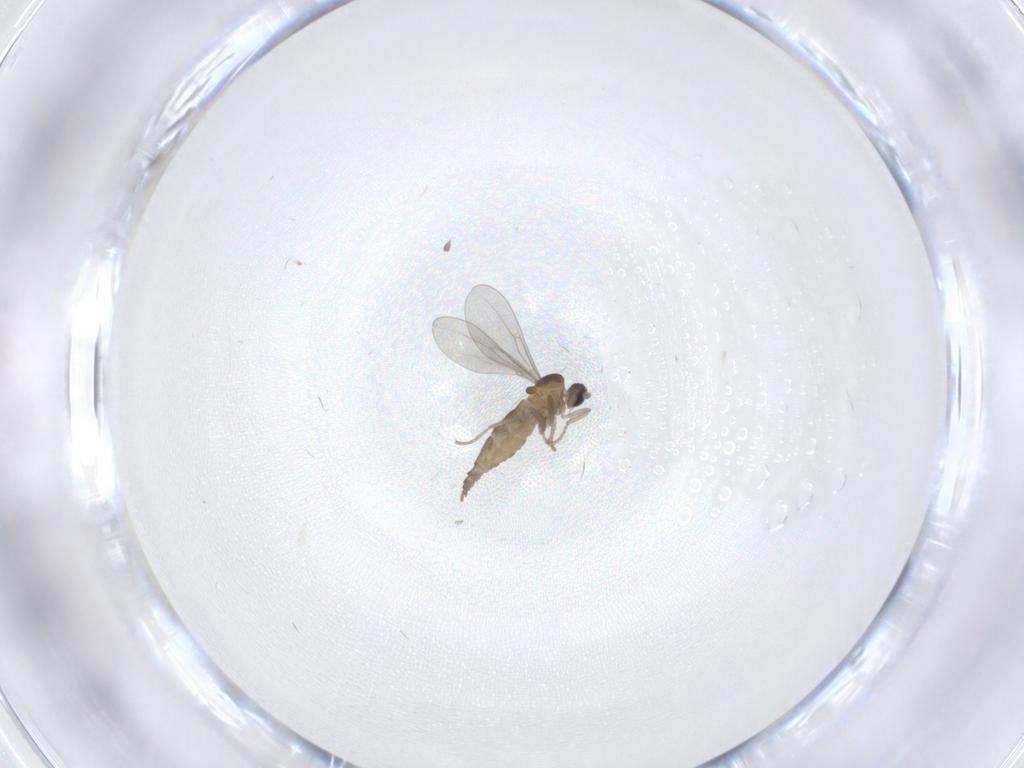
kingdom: Animalia
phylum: Arthropoda
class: Insecta
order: Diptera
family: Cecidomyiidae
